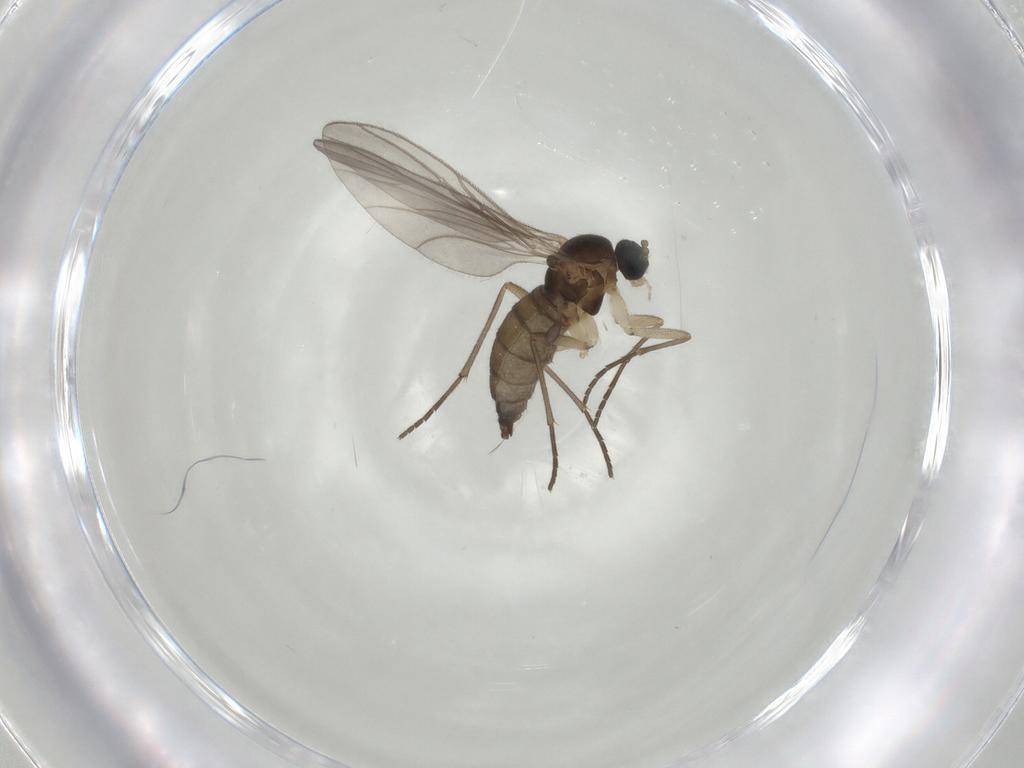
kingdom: Animalia
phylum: Arthropoda
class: Insecta
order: Diptera
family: Sciaridae
